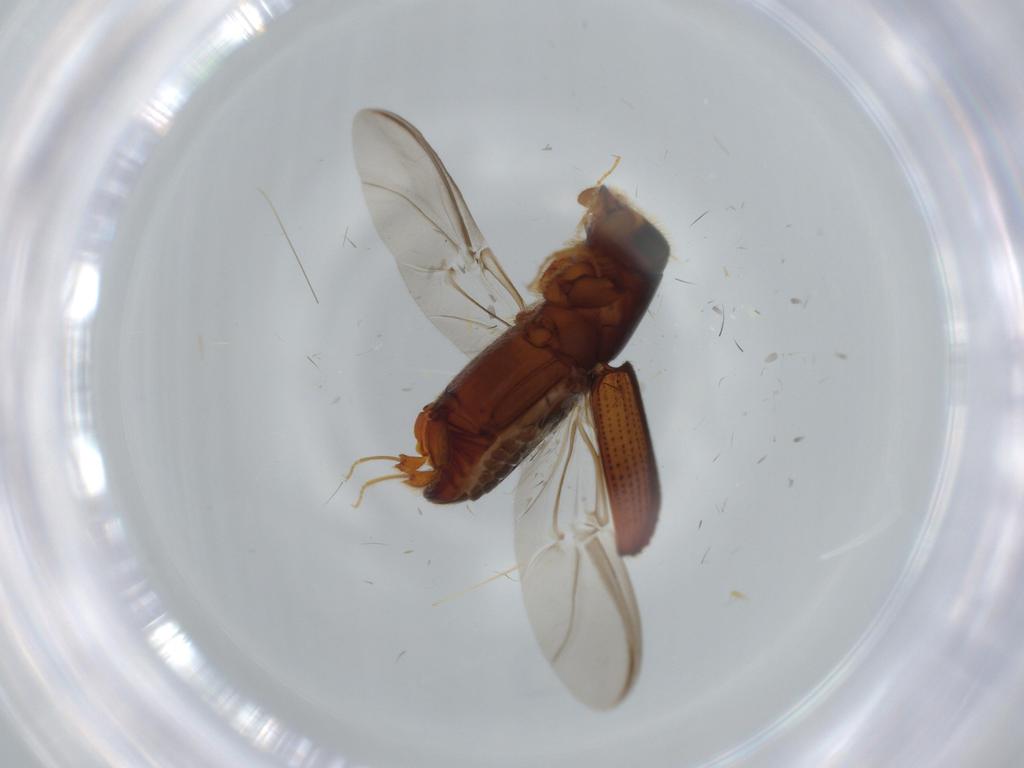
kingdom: Animalia
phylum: Arthropoda
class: Insecta
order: Coleoptera
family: Curculionidae
